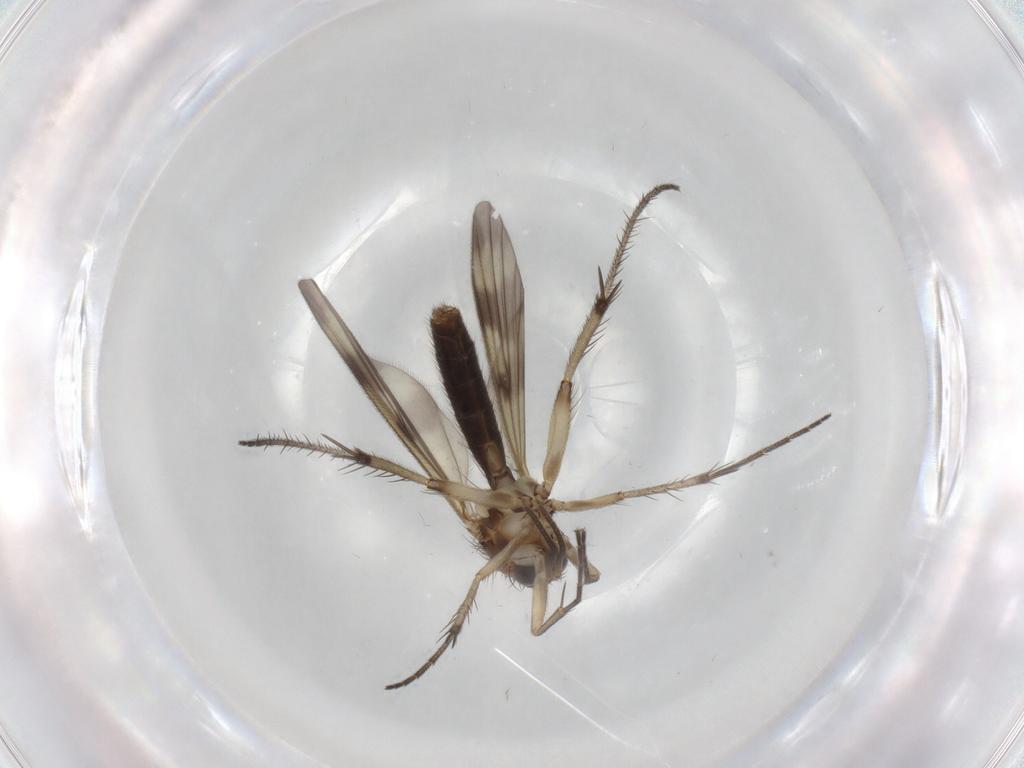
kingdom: Animalia
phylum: Arthropoda
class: Insecta
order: Diptera
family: Mycetophilidae
